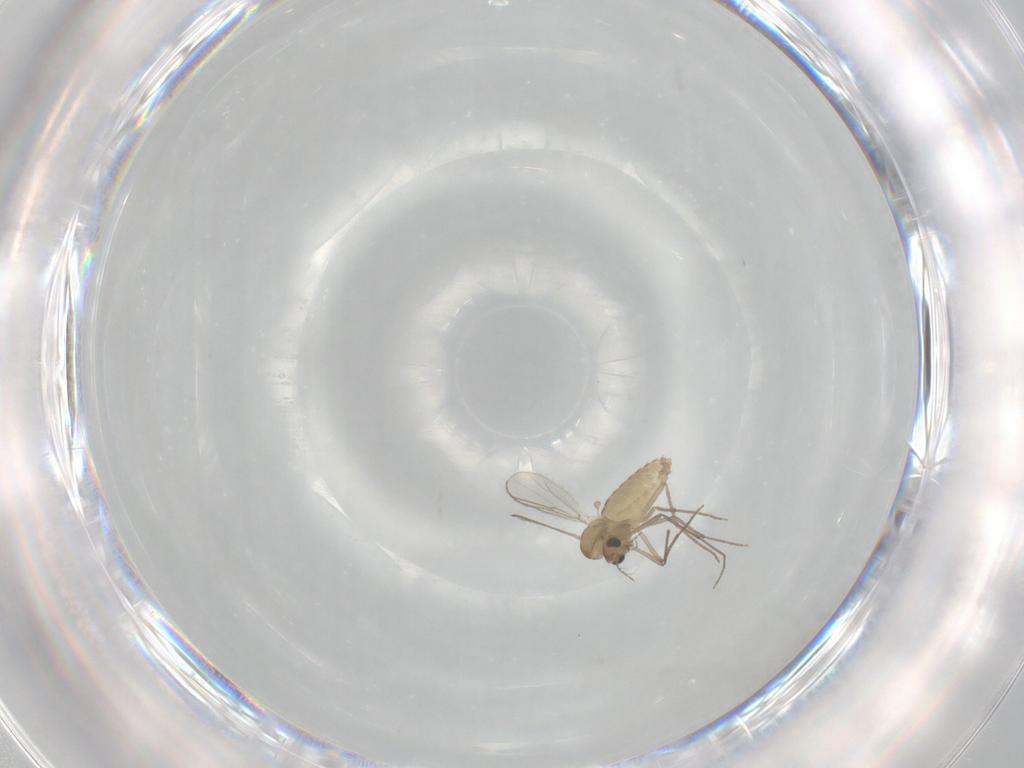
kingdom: Animalia
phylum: Arthropoda
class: Insecta
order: Diptera
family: Chironomidae
